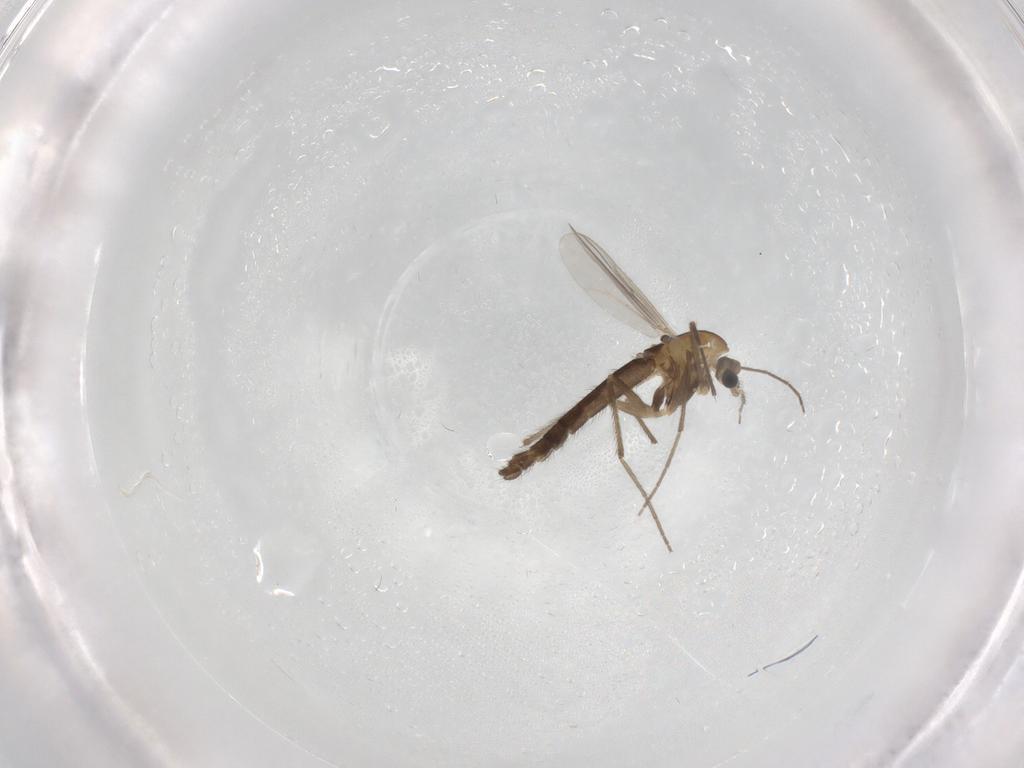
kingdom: Animalia
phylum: Arthropoda
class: Insecta
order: Diptera
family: Chironomidae
